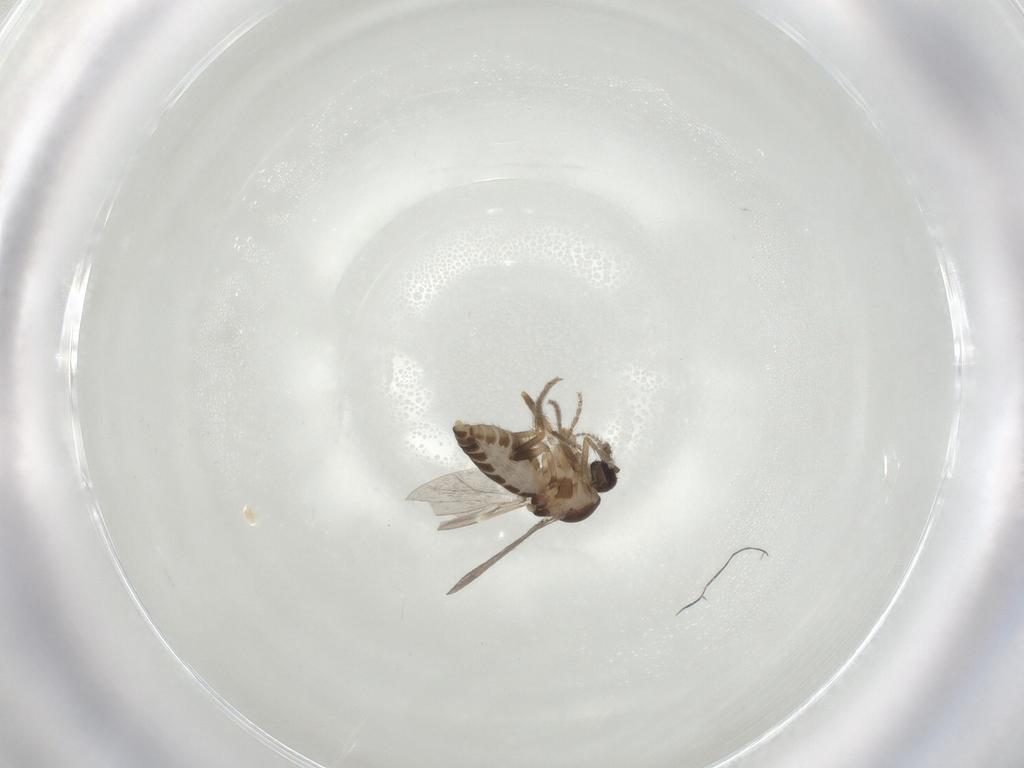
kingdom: Animalia
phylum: Arthropoda
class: Insecta
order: Diptera
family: Ceratopogonidae
